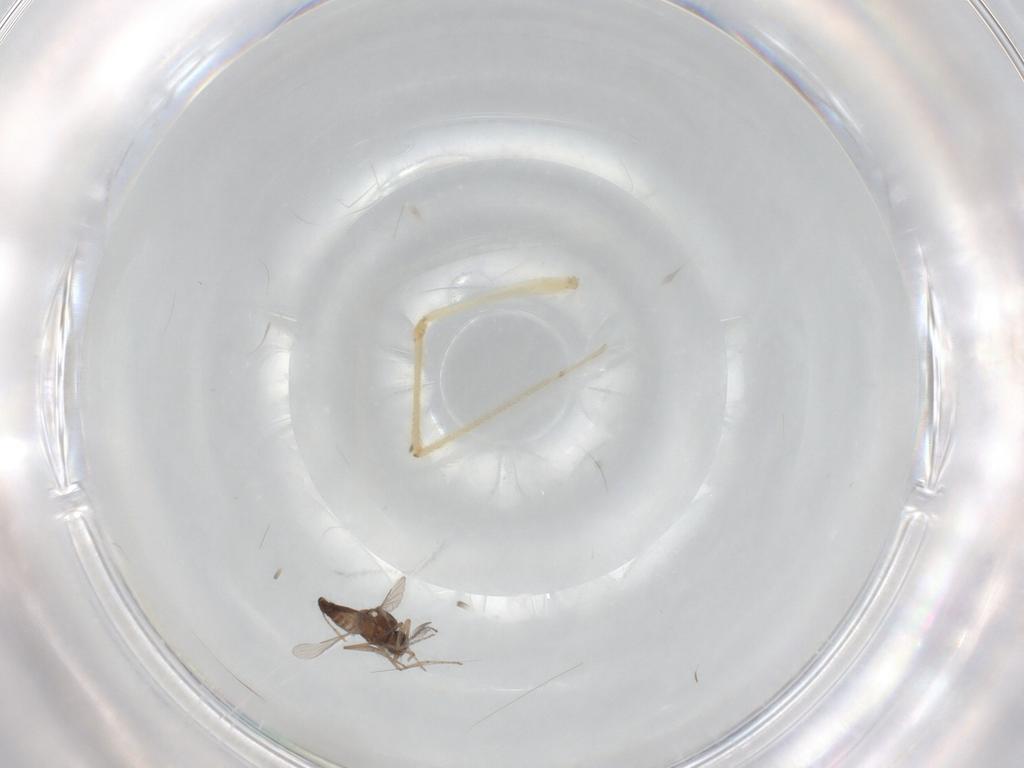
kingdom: Animalia
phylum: Arthropoda
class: Insecta
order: Diptera
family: Ceratopogonidae
